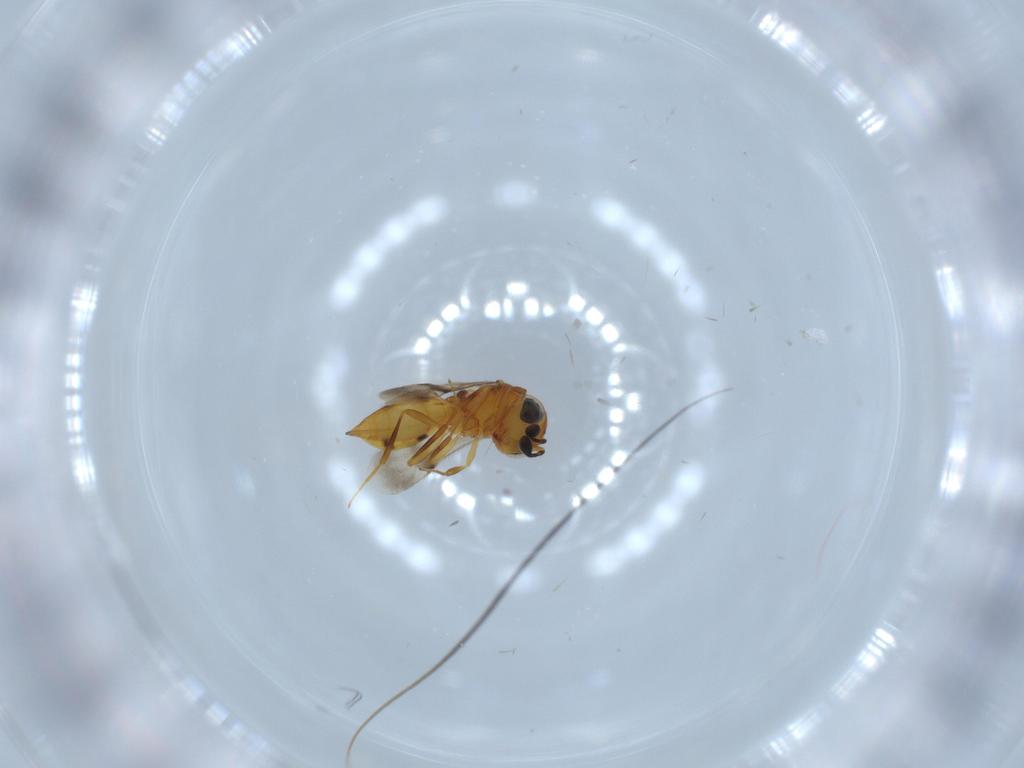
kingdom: Animalia
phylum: Arthropoda
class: Insecta
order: Hymenoptera
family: Scelionidae
